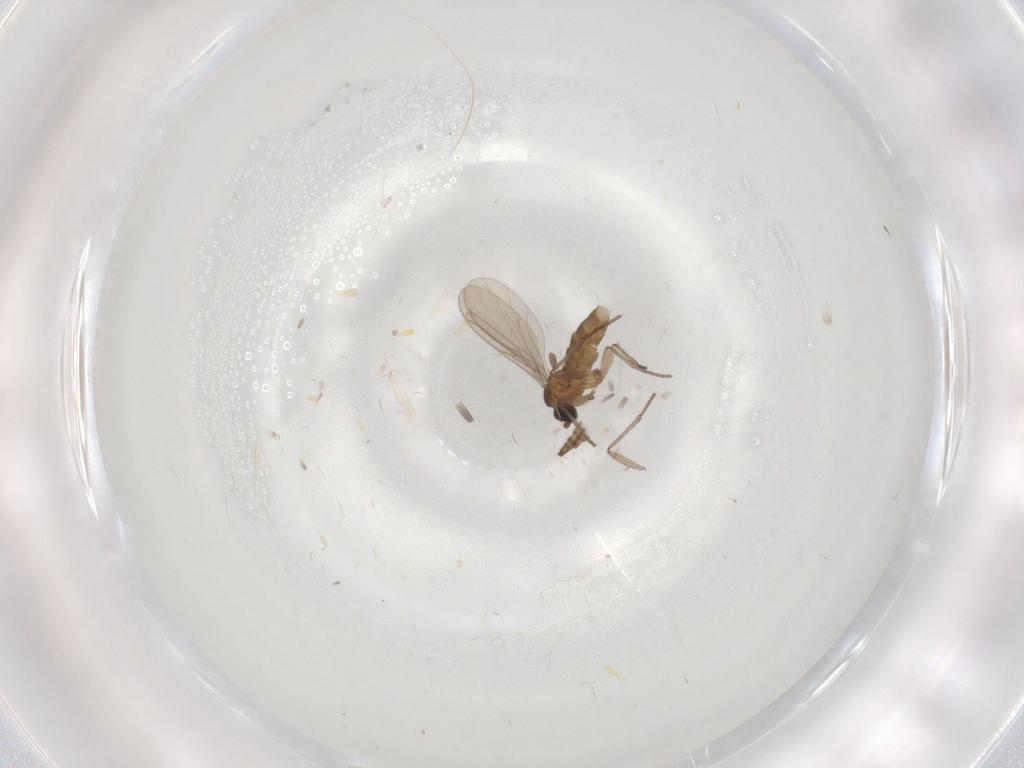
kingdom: Animalia
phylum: Arthropoda
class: Insecta
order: Diptera
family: Sciaridae
